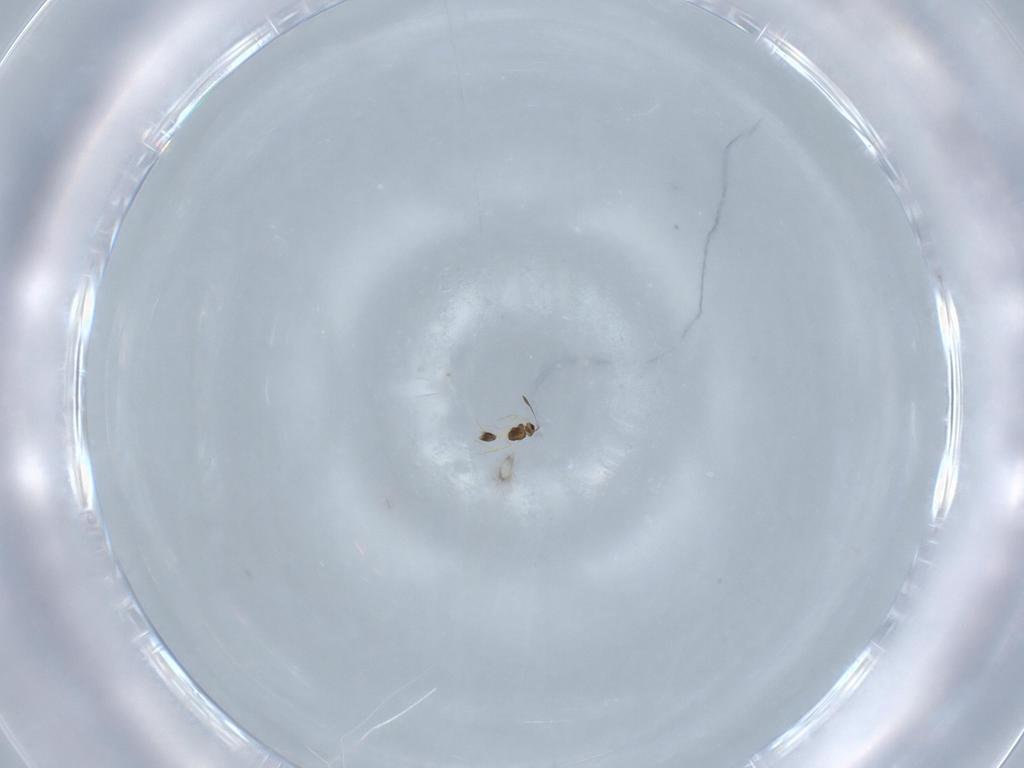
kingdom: Animalia
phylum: Arthropoda
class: Insecta
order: Hymenoptera
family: Mymarommatidae
